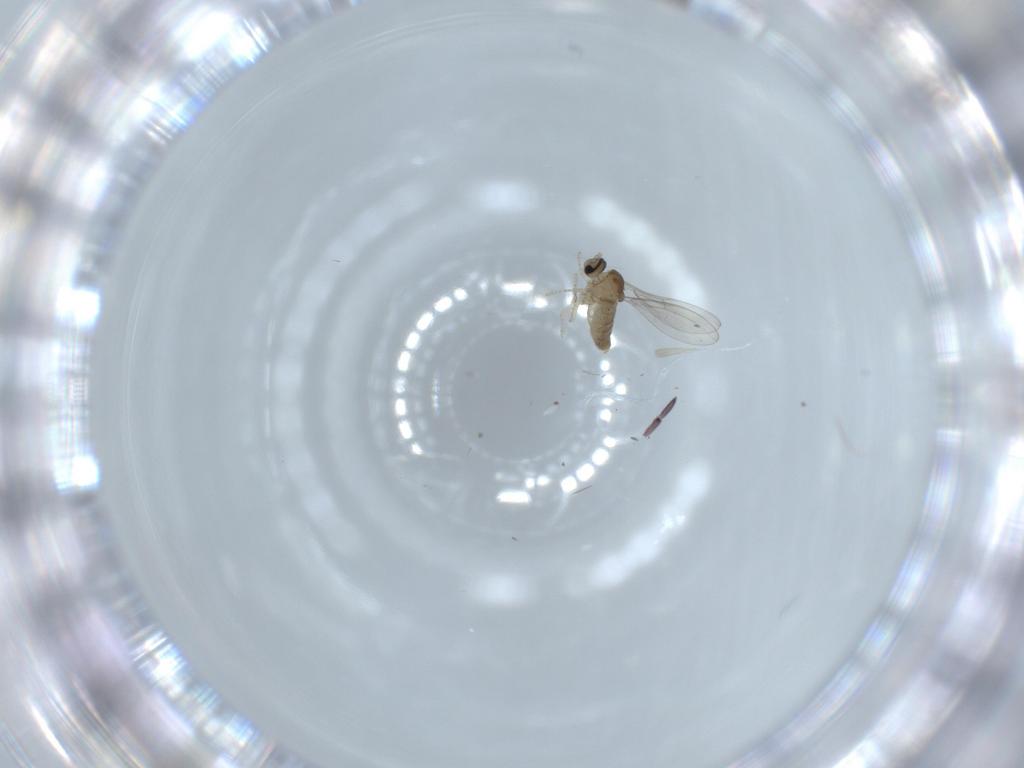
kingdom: Animalia
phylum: Arthropoda
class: Insecta
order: Diptera
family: Cecidomyiidae
